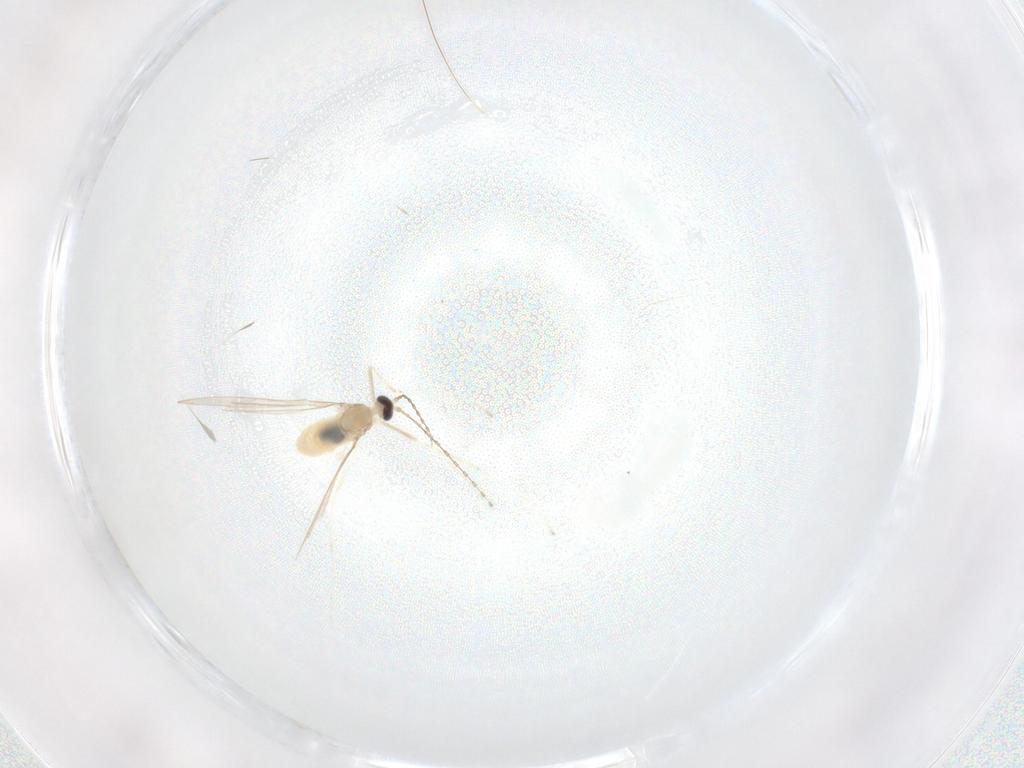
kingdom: Animalia
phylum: Arthropoda
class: Insecta
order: Diptera
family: Cecidomyiidae
